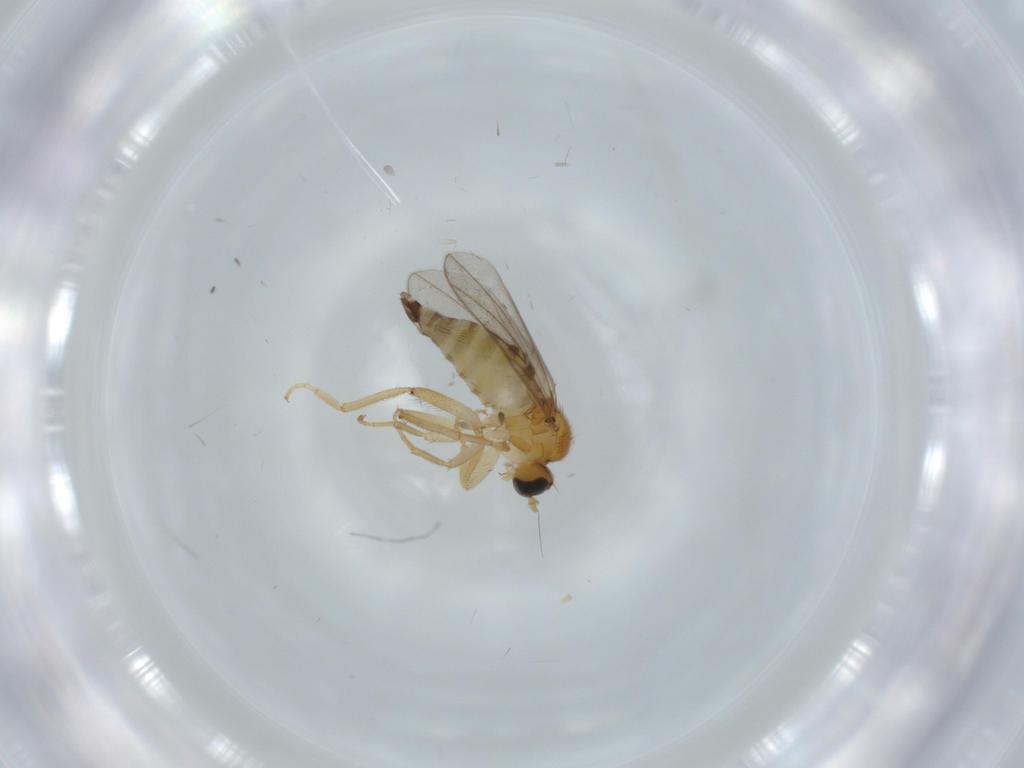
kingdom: Animalia
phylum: Arthropoda
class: Insecta
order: Diptera
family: Hybotidae
